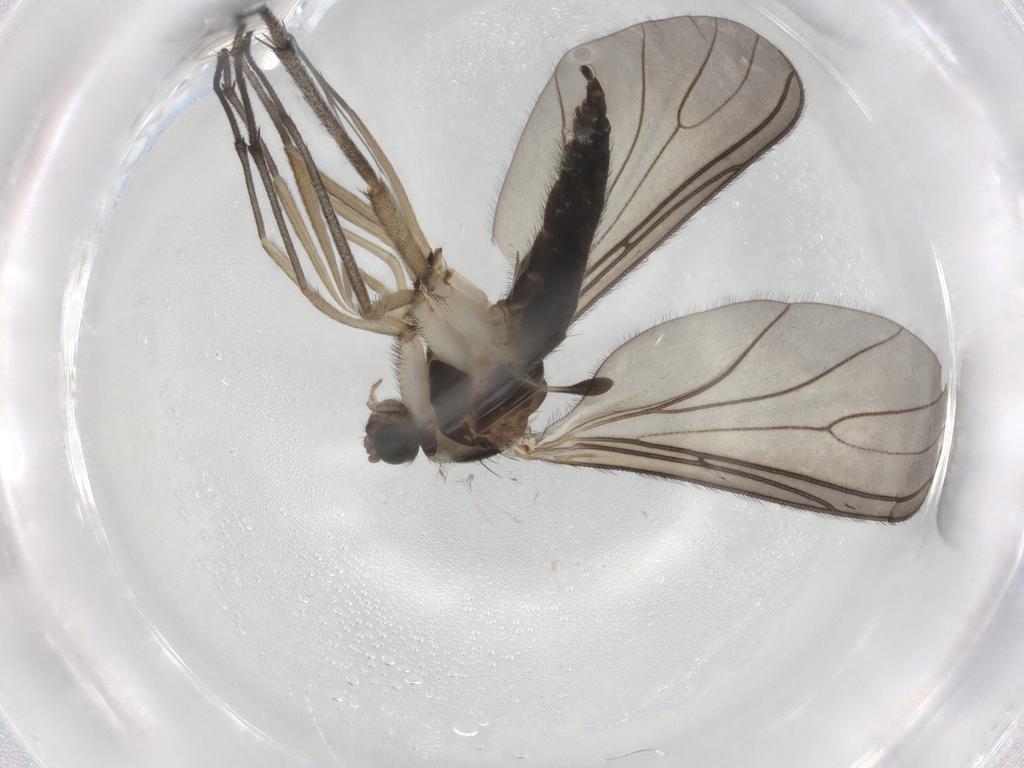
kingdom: Animalia
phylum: Arthropoda
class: Insecta
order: Diptera
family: Sciaridae
